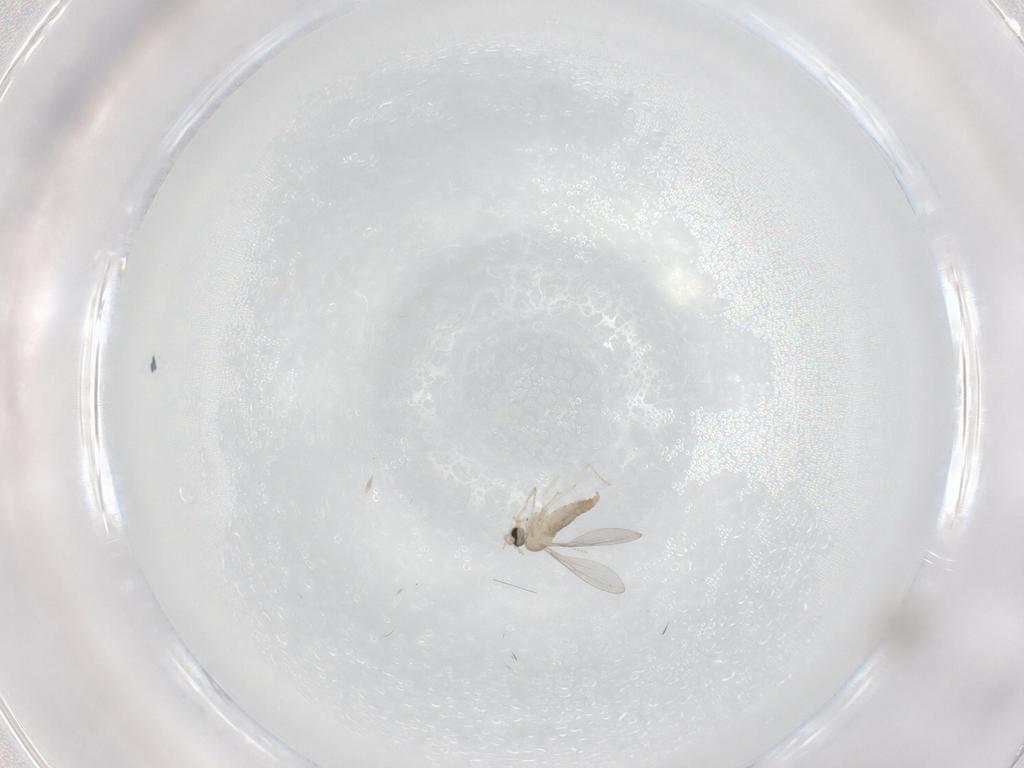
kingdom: Animalia
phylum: Arthropoda
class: Insecta
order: Diptera
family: Cecidomyiidae
